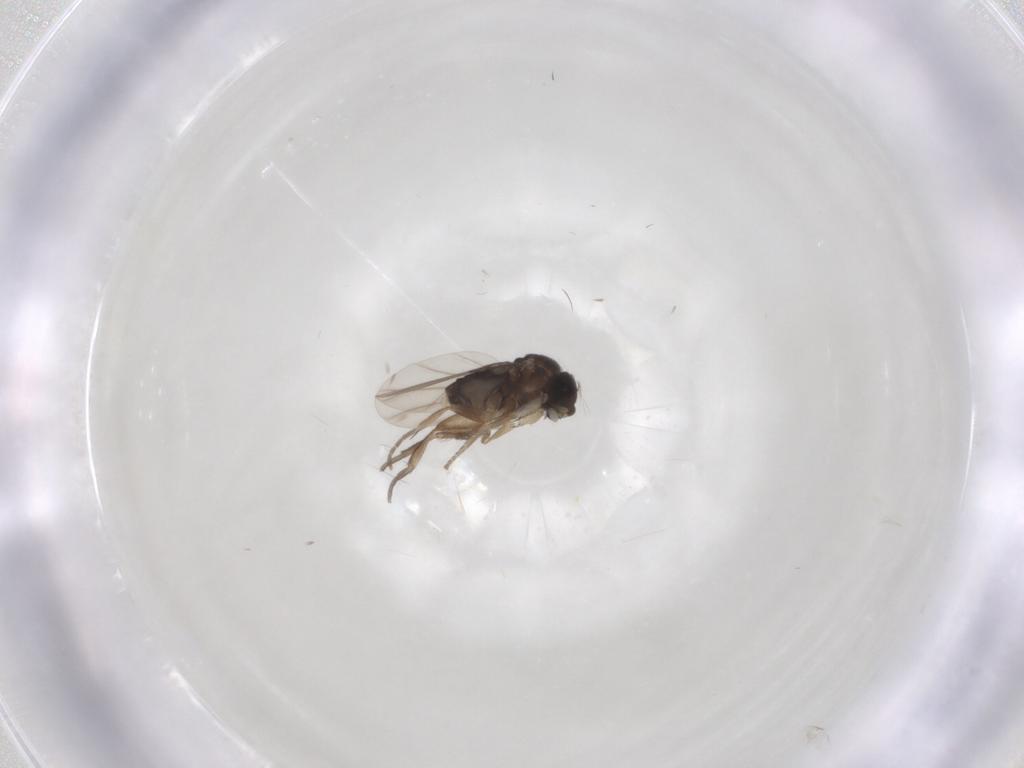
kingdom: Animalia
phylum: Arthropoda
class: Insecta
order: Diptera
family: Phoridae
